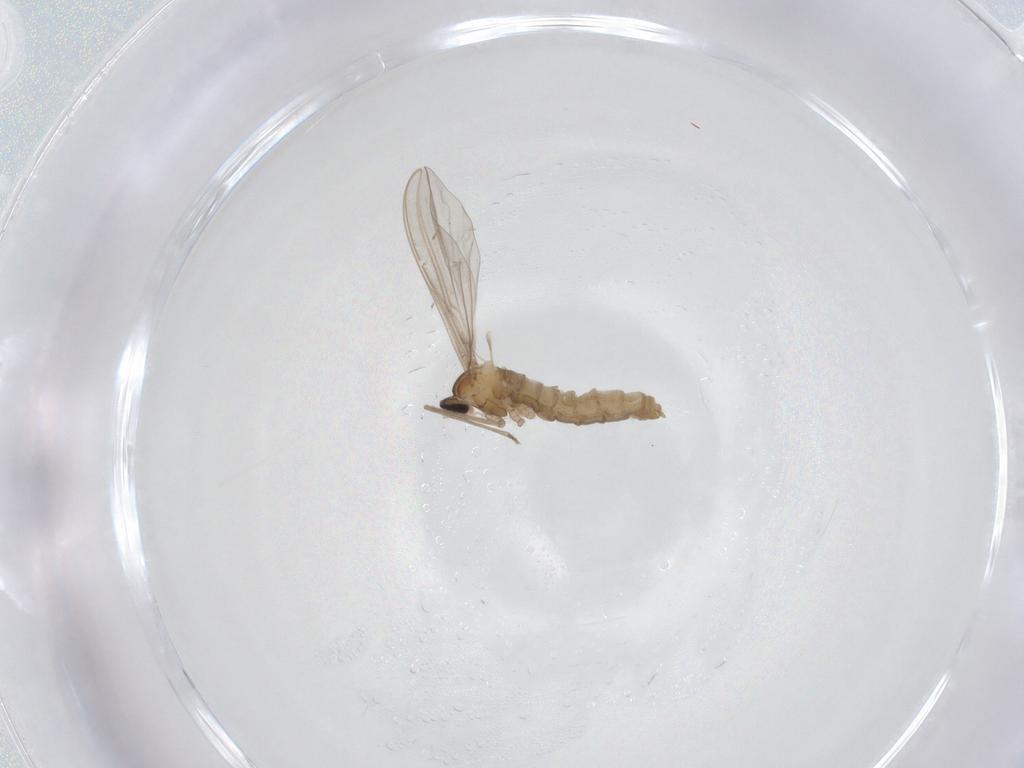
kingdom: Animalia
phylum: Arthropoda
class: Insecta
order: Diptera
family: Cecidomyiidae
